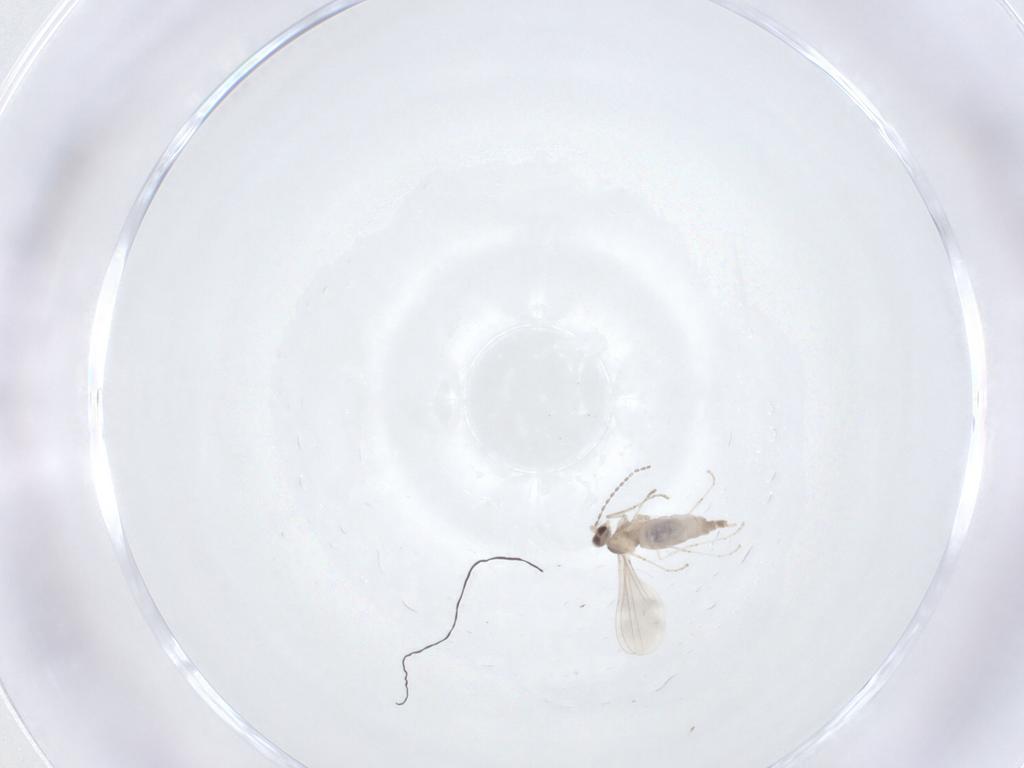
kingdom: Animalia
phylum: Arthropoda
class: Insecta
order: Diptera
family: Cecidomyiidae
